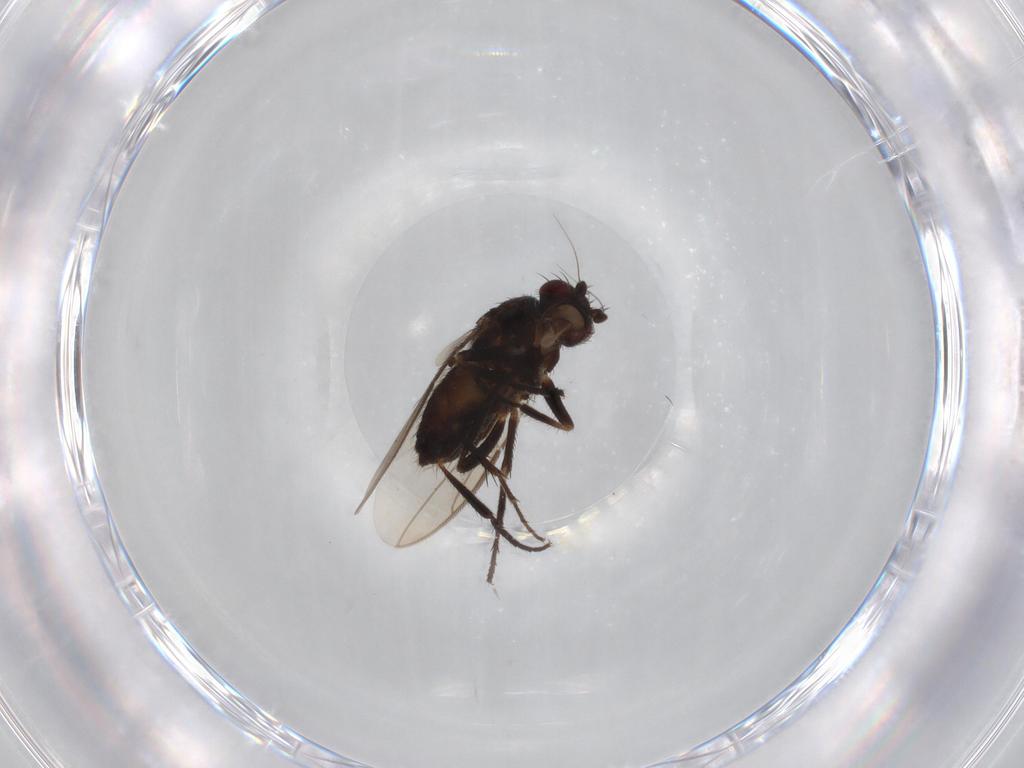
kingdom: Animalia
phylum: Arthropoda
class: Insecta
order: Diptera
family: Sphaeroceridae
